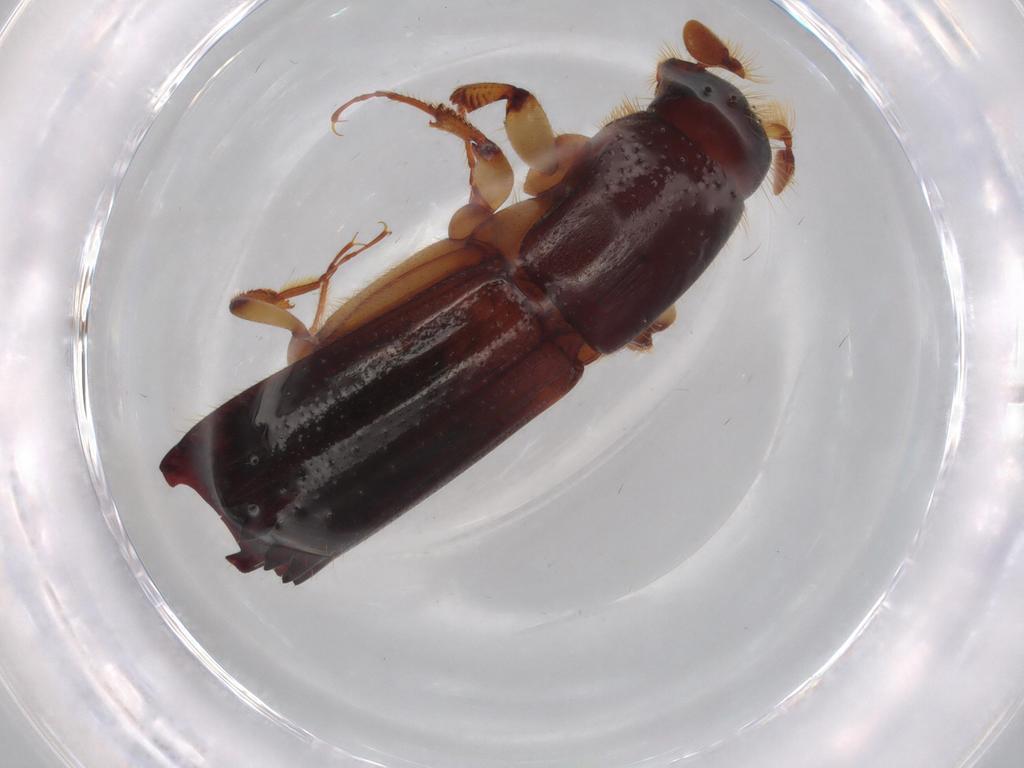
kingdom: Animalia
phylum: Arthropoda
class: Insecta
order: Coleoptera
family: Curculionidae
